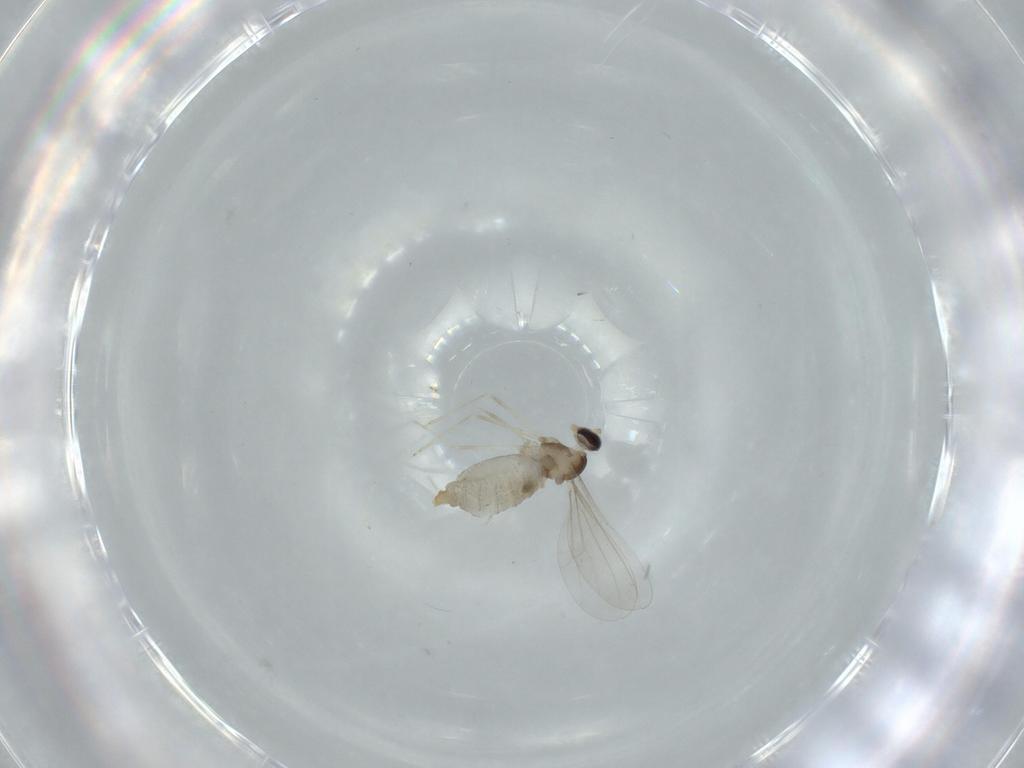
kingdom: Animalia
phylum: Arthropoda
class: Insecta
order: Diptera
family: Cecidomyiidae
